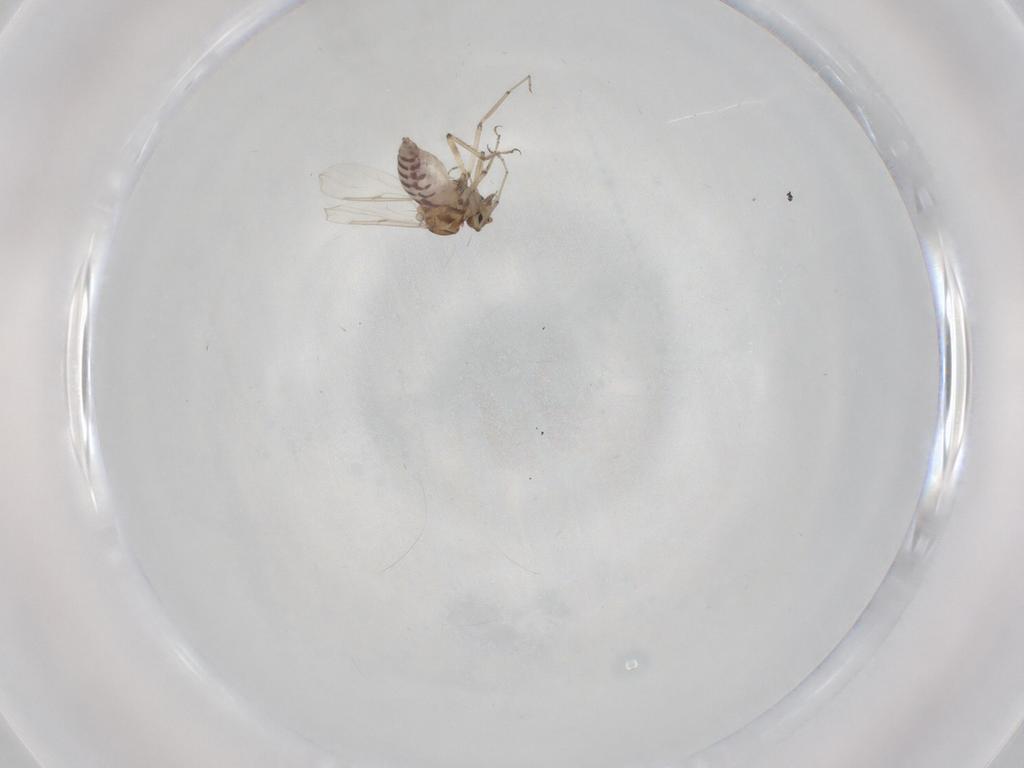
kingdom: Animalia
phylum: Arthropoda
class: Insecta
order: Diptera
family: Ceratopogonidae
